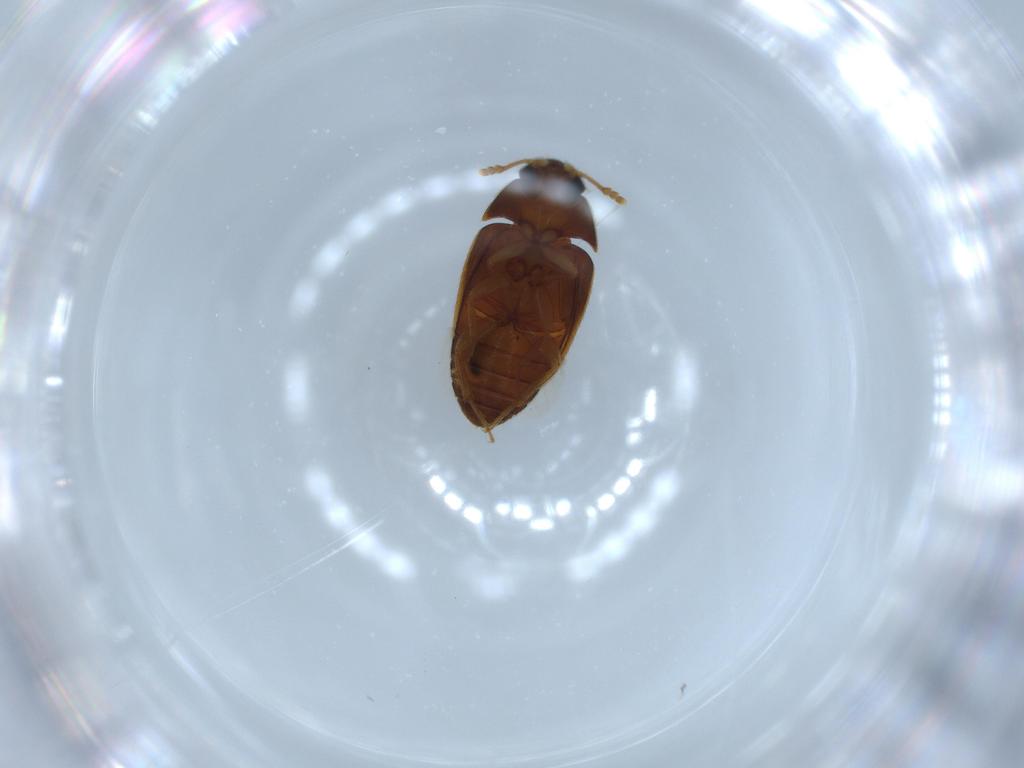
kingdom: Animalia
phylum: Arthropoda
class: Insecta
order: Coleoptera
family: Mycetophagidae
